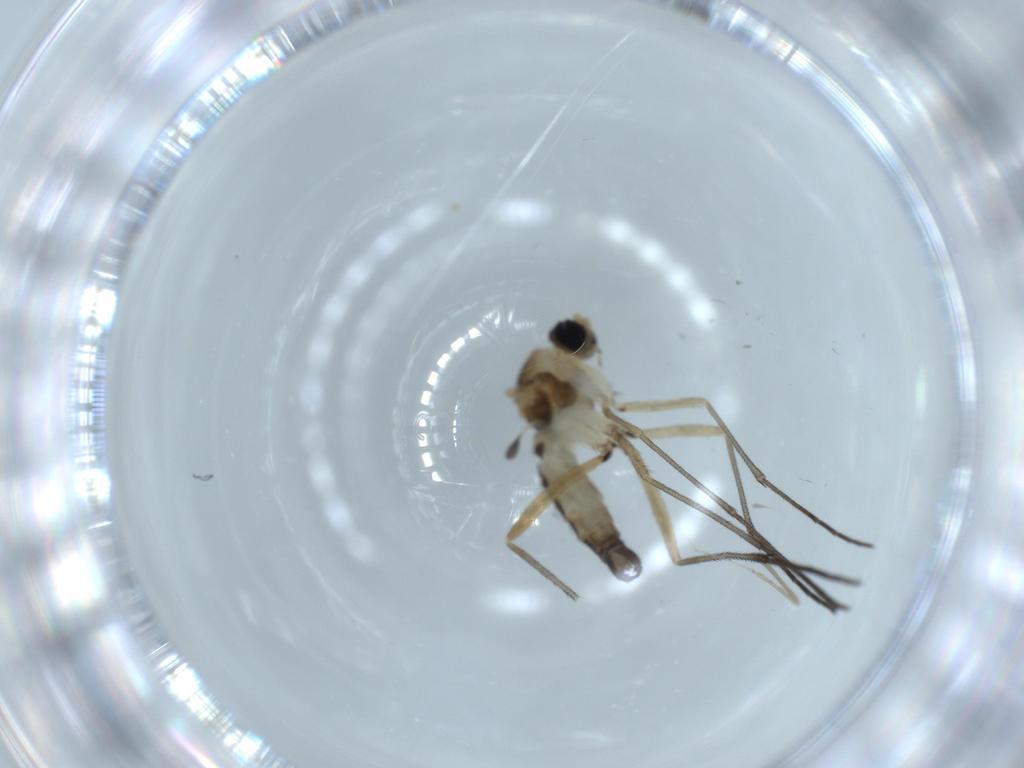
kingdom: Animalia
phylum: Arthropoda
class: Insecta
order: Diptera
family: Sciaridae
